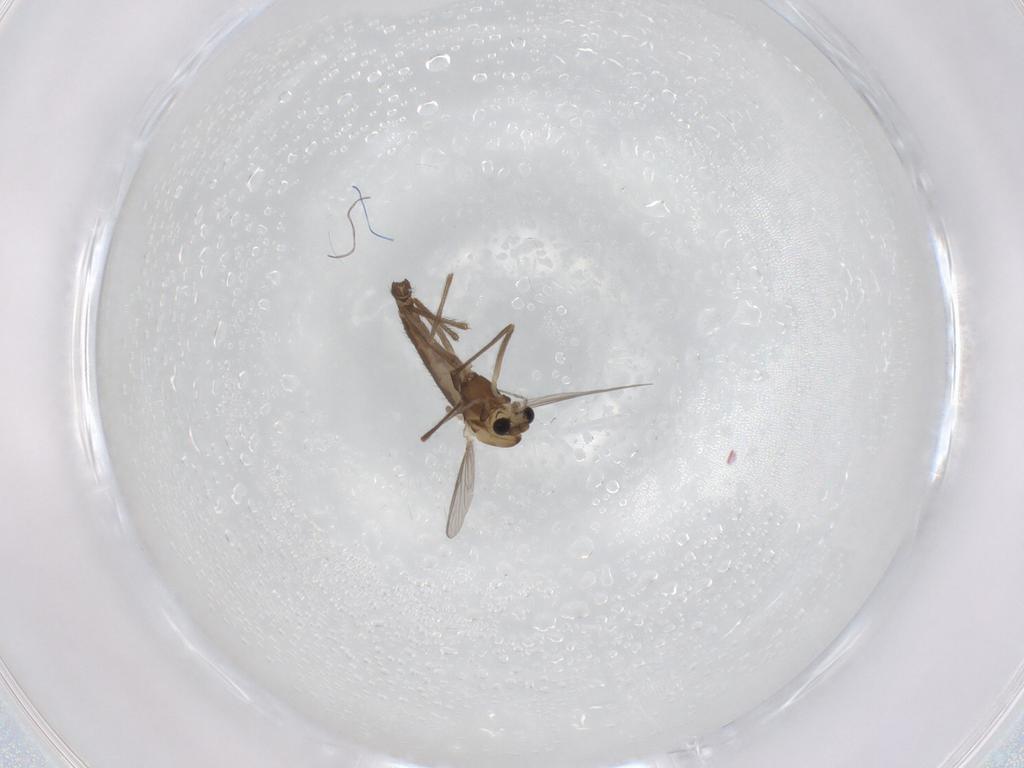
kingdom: Animalia
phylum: Arthropoda
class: Insecta
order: Diptera
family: Chironomidae
